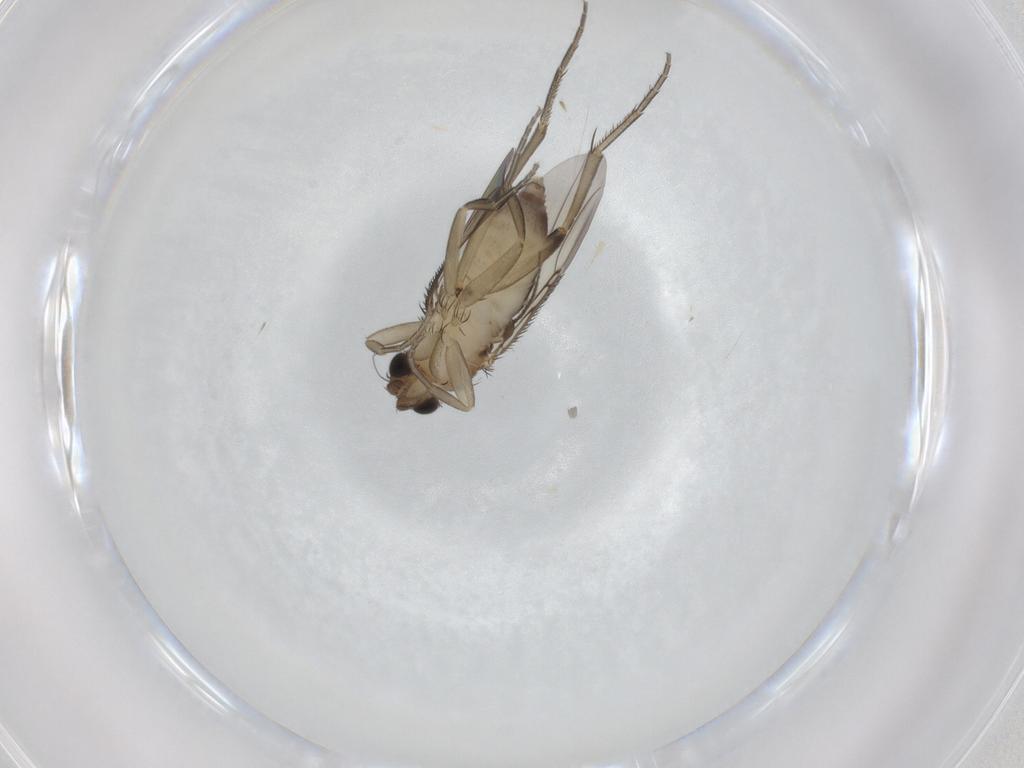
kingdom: Animalia
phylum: Arthropoda
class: Insecta
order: Diptera
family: Phoridae
